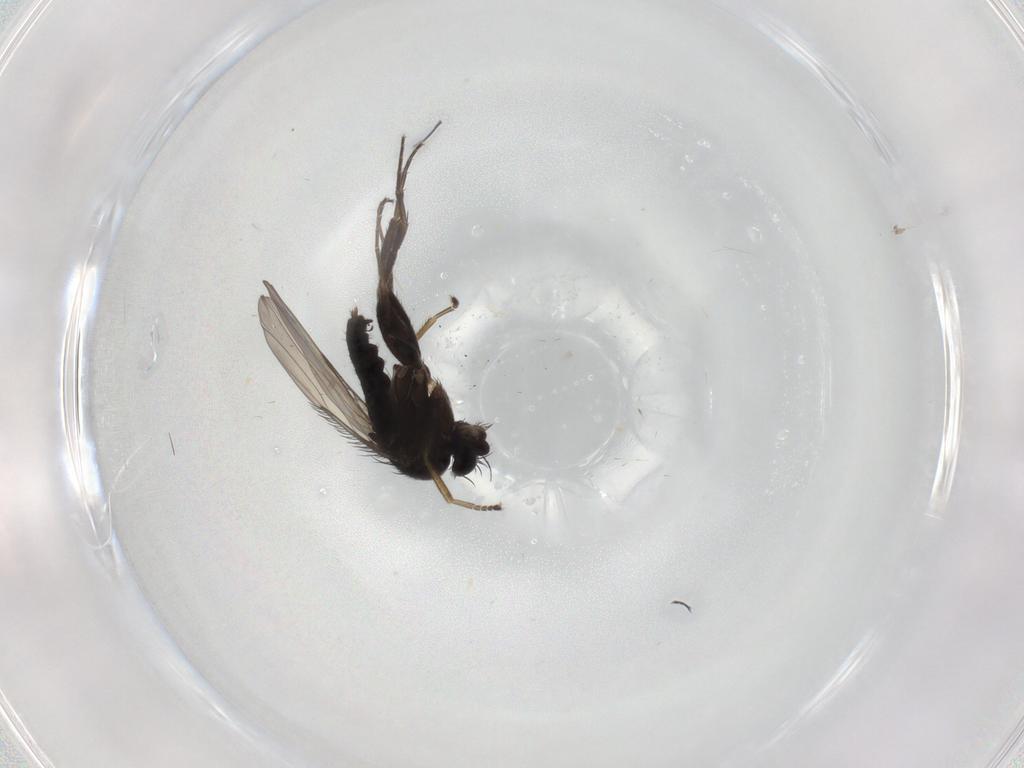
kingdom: Animalia
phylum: Arthropoda
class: Insecta
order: Diptera
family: Phoridae
